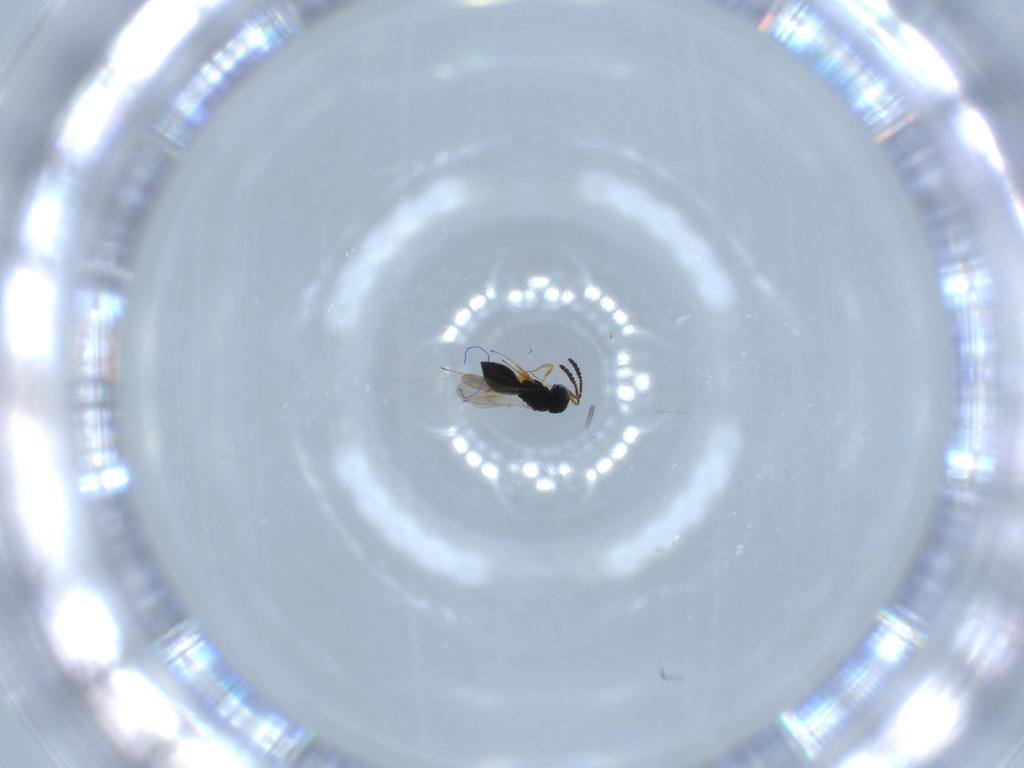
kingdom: Animalia
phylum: Arthropoda
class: Insecta
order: Hymenoptera
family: Scelionidae
